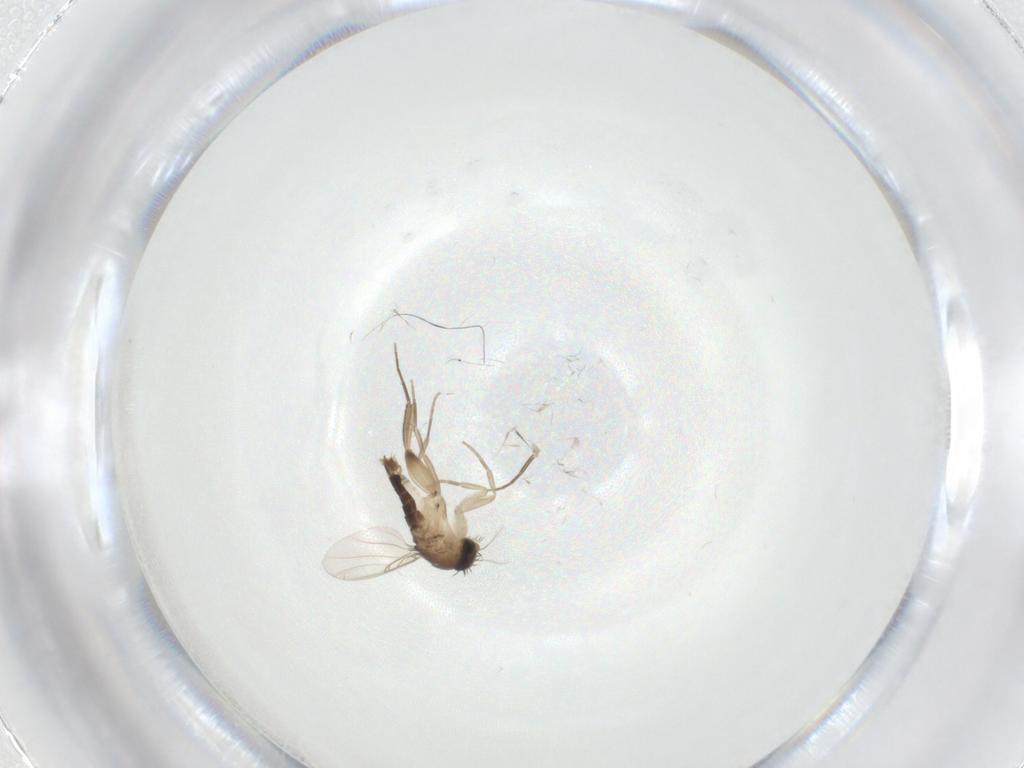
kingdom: Animalia
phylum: Arthropoda
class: Insecta
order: Diptera
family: Phoridae
